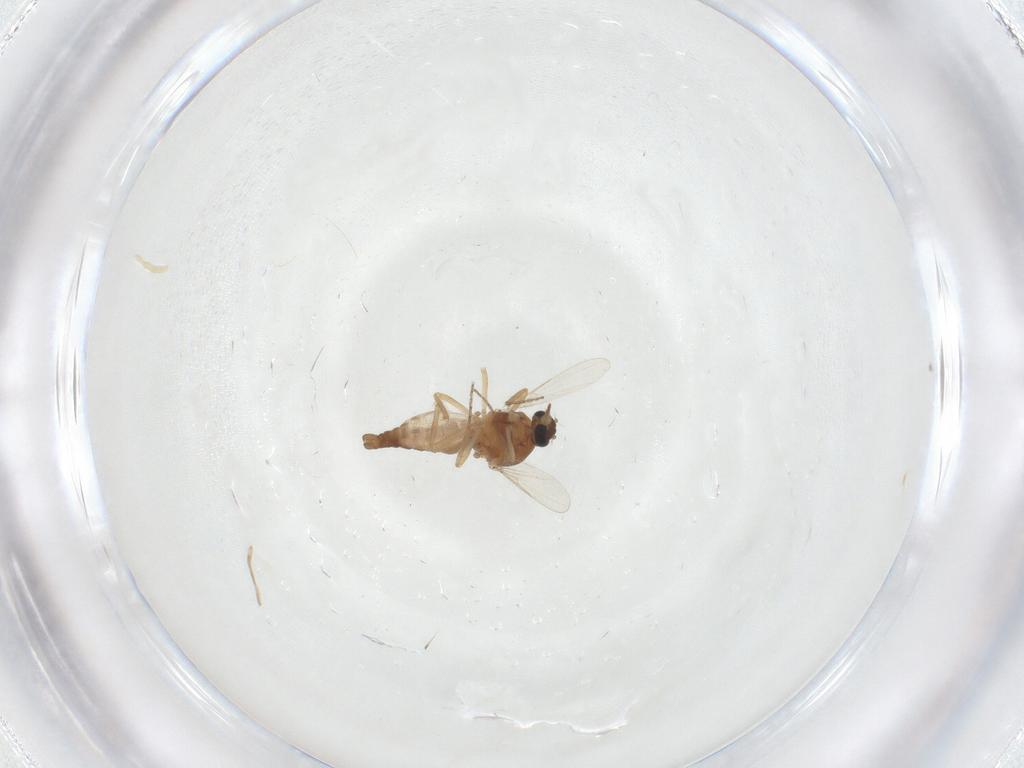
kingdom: Animalia
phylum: Arthropoda
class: Insecta
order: Diptera
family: Ceratopogonidae
